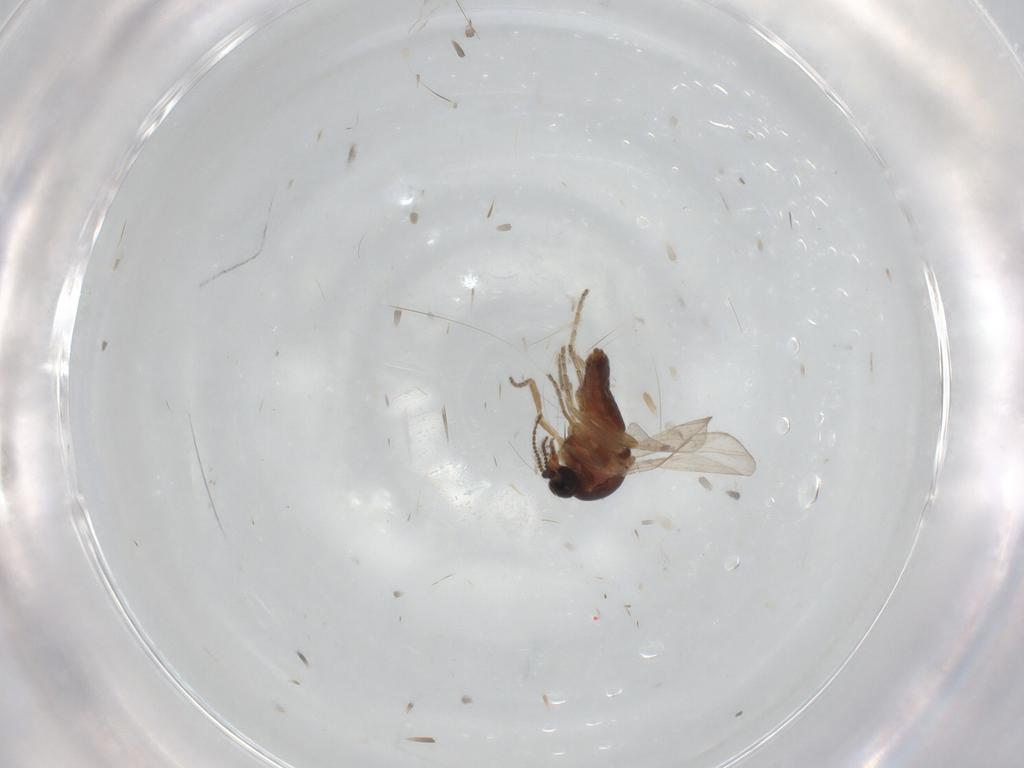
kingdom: Animalia
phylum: Arthropoda
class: Insecta
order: Diptera
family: Ceratopogonidae
